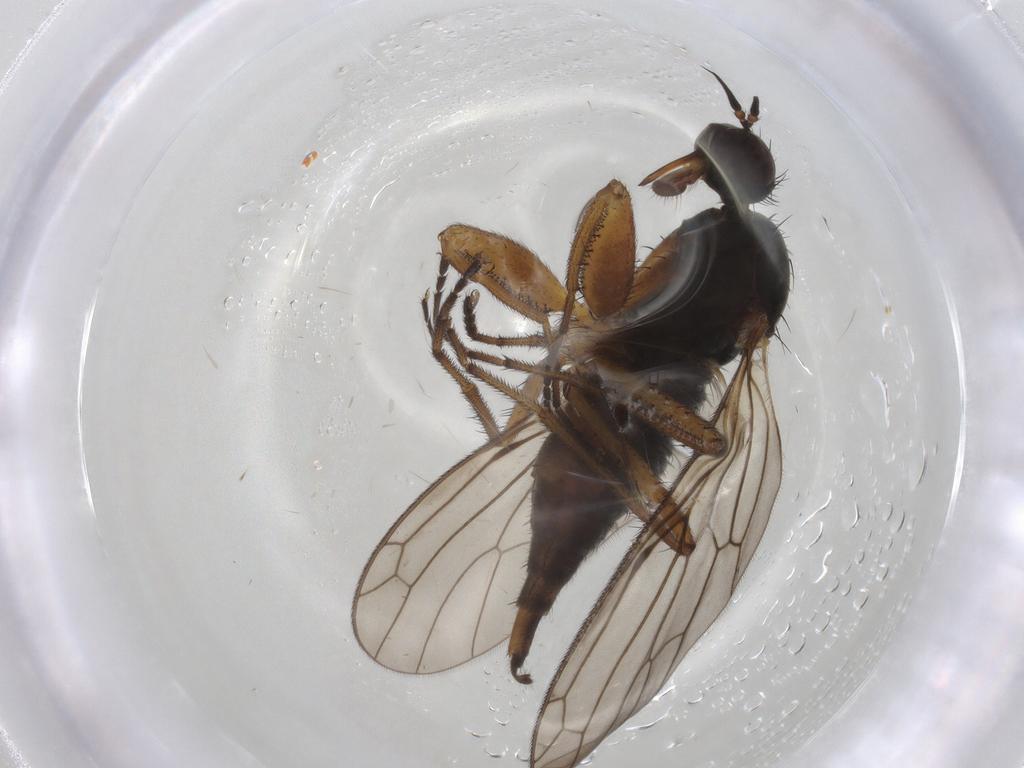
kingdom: Animalia
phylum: Arthropoda
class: Insecta
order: Diptera
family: Empididae
